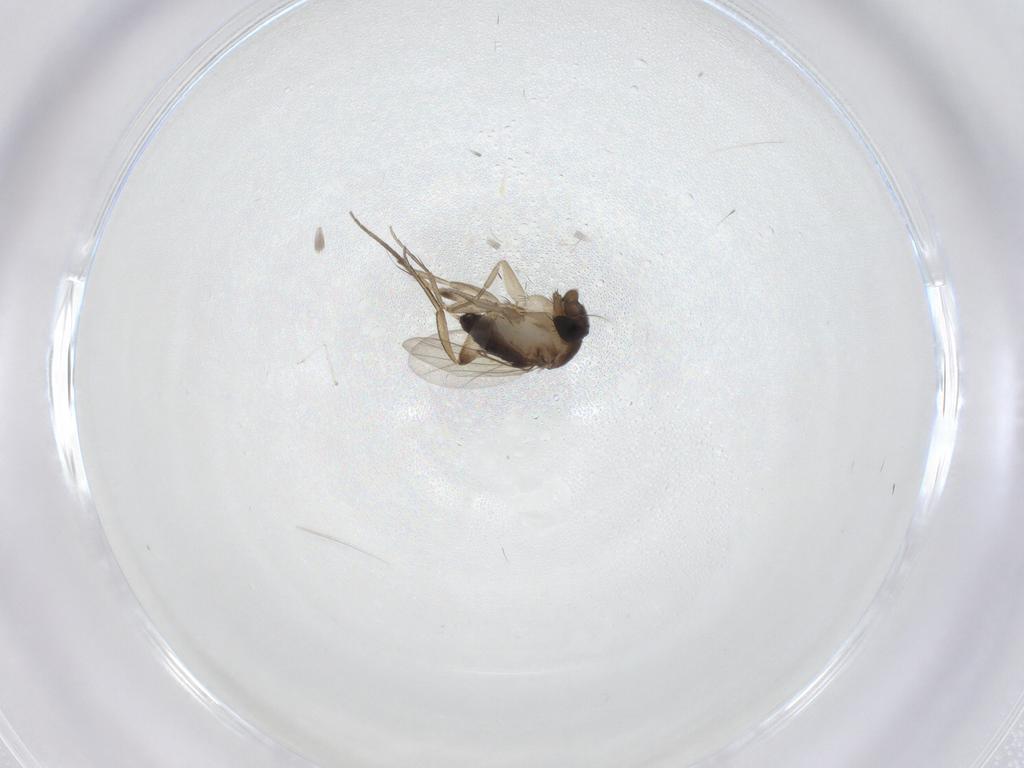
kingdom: Animalia
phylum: Arthropoda
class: Insecta
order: Diptera
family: Phoridae
